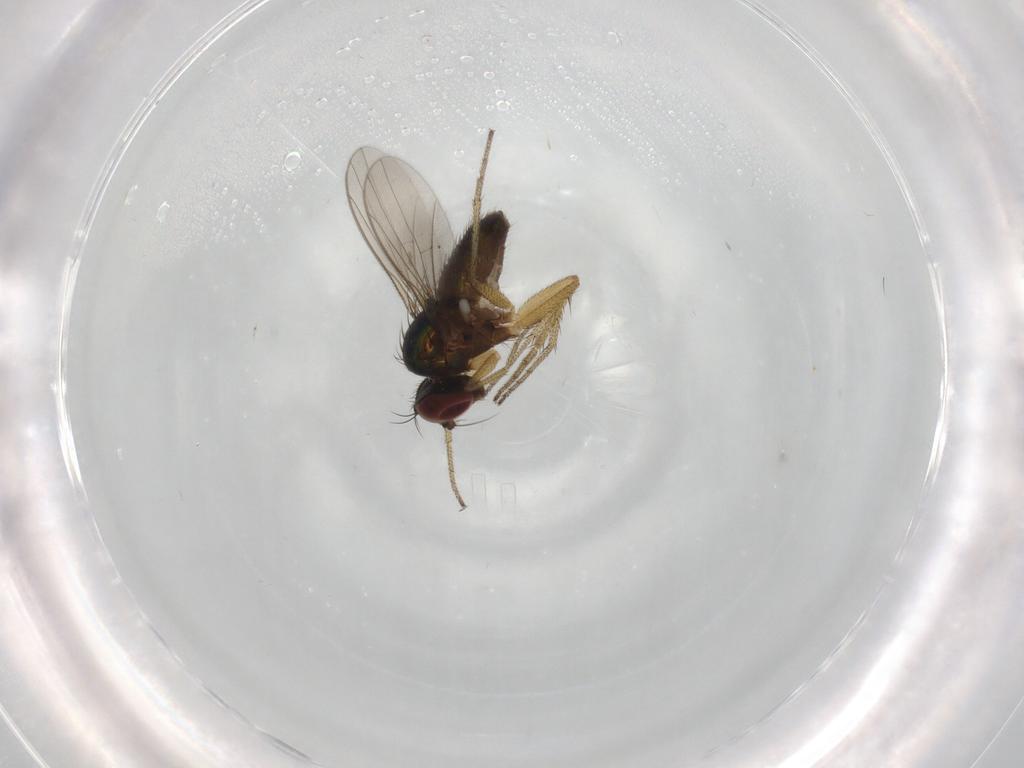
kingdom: Animalia
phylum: Arthropoda
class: Insecta
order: Diptera
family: Dolichopodidae
